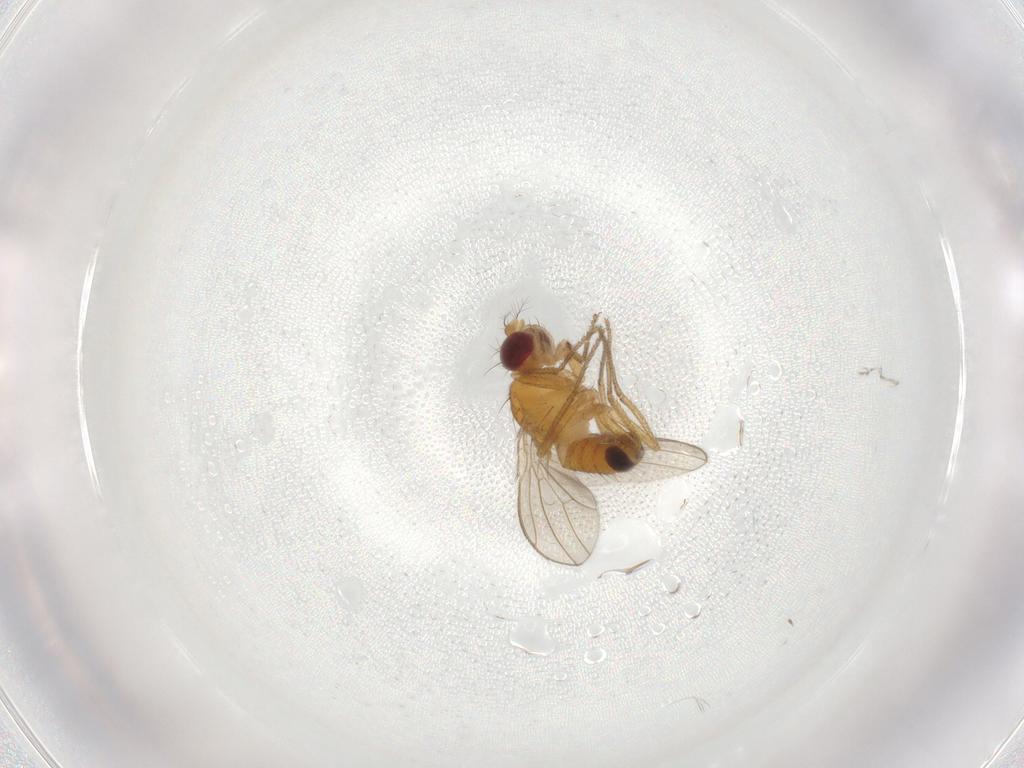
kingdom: Animalia
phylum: Arthropoda
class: Insecta
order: Diptera
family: Drosophilidae
